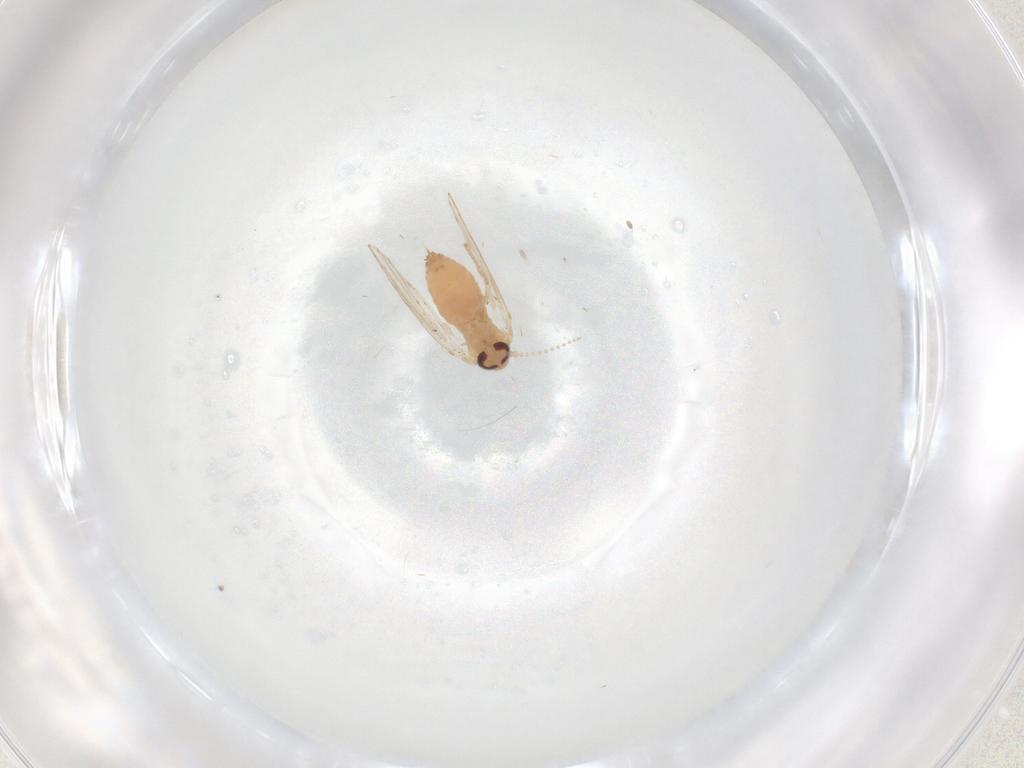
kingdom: Animalia
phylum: Arthropoda
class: Insecta
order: Diptera
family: Psychodidae
